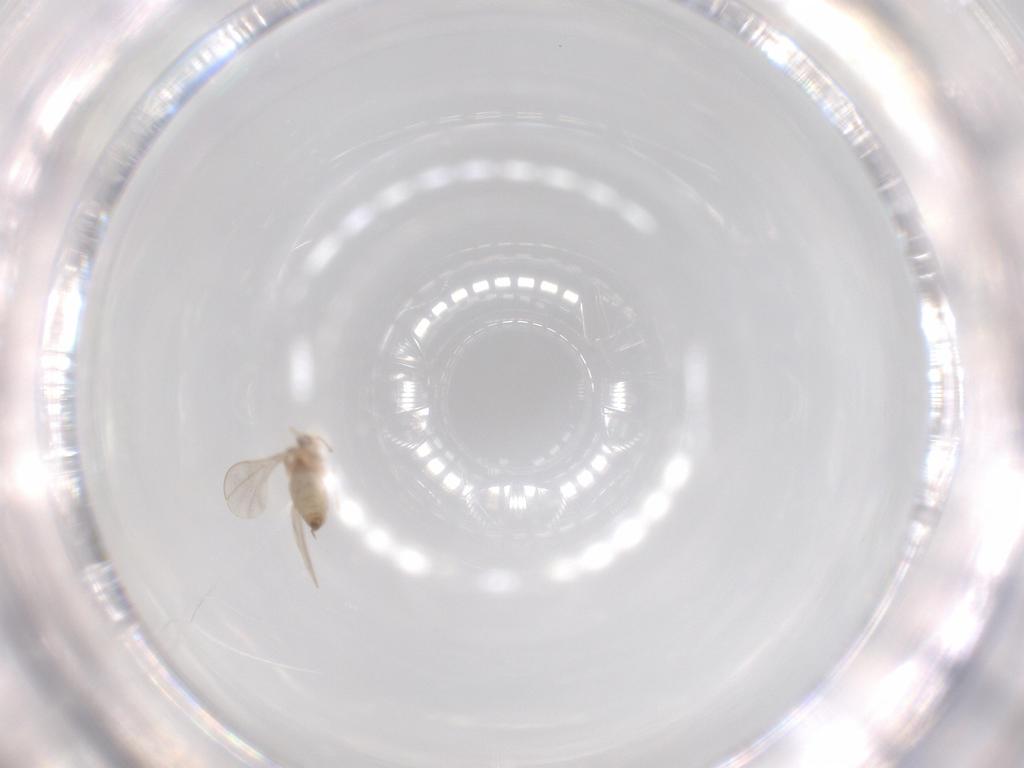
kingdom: Animalia
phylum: Arthropoda
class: Insecta
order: Diptera
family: Cecidomyiidae
